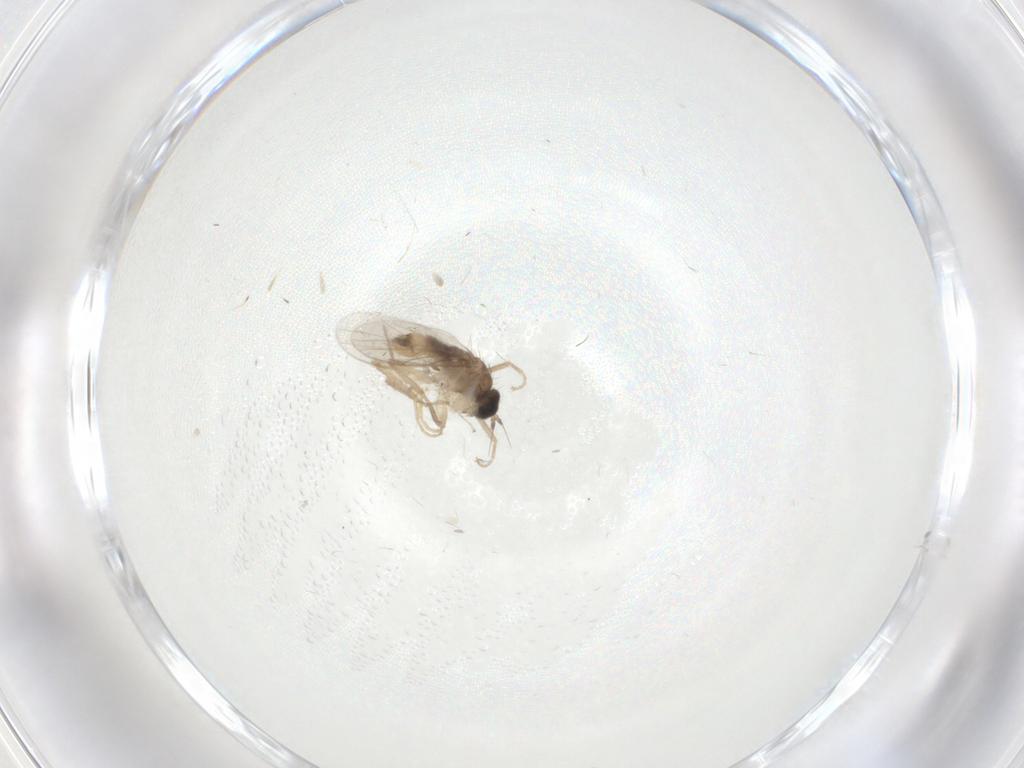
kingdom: Animalia
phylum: Arthropoda
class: Insecta
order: Diptera
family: Hybotidae
